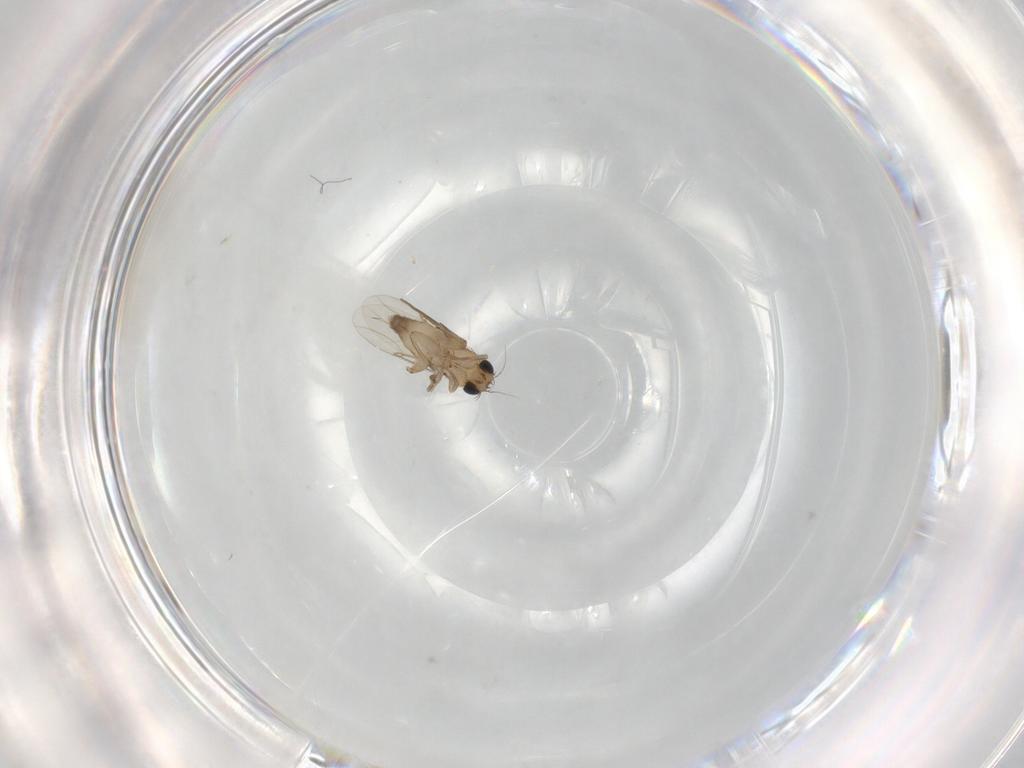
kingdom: Animalia
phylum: Arthropoda
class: Insecta
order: Diptera
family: Phoridae
